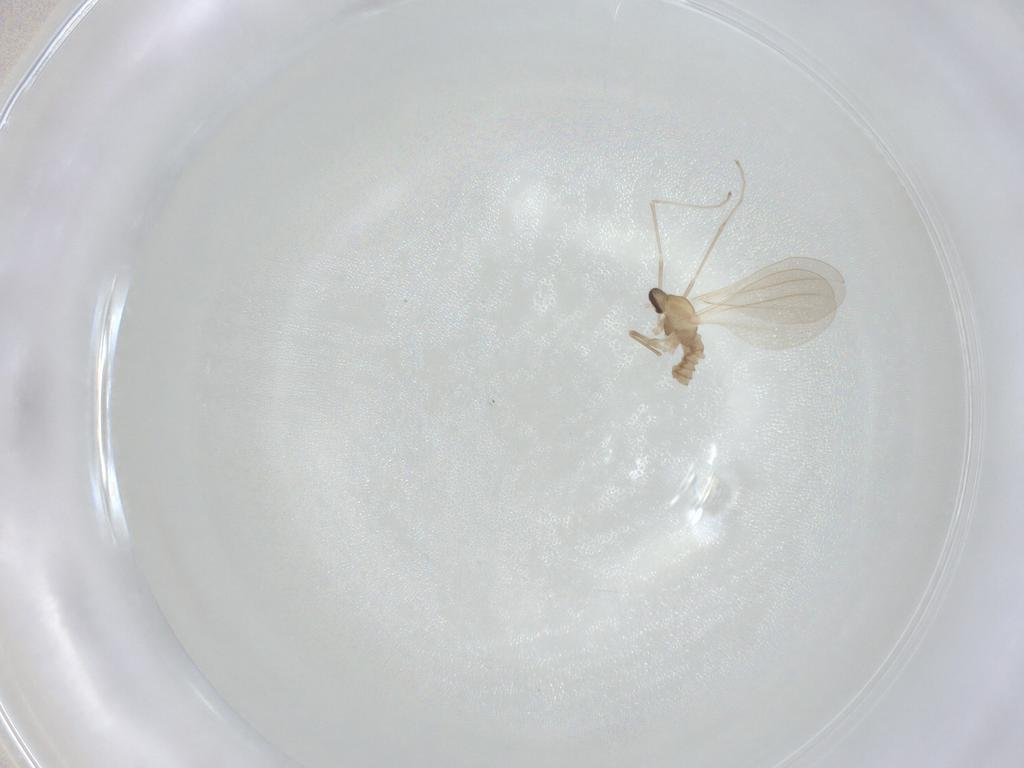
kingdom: Animalia
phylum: Arthropoda
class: Insecta
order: Diptera
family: Cecidomyiidae
